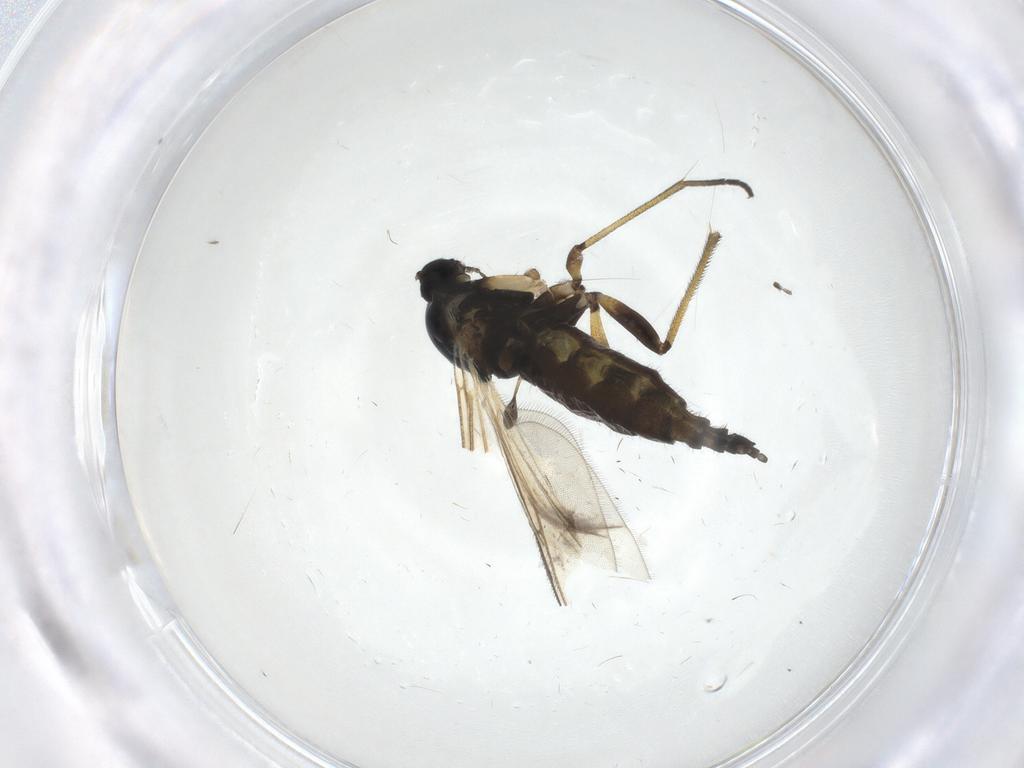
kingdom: Animalia
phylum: Arthropoda
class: Insecta
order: Diptera
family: Sciaridae
